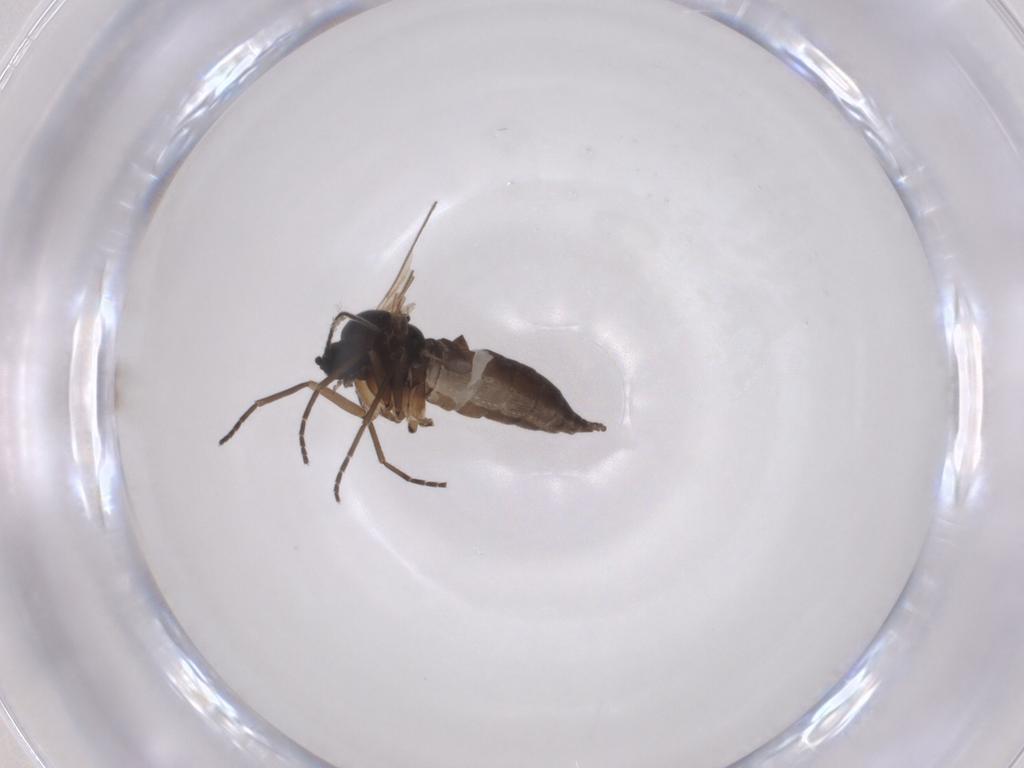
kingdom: Animalia
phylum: Arthropoda
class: Insecta
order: Diptera
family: Sciaridae
